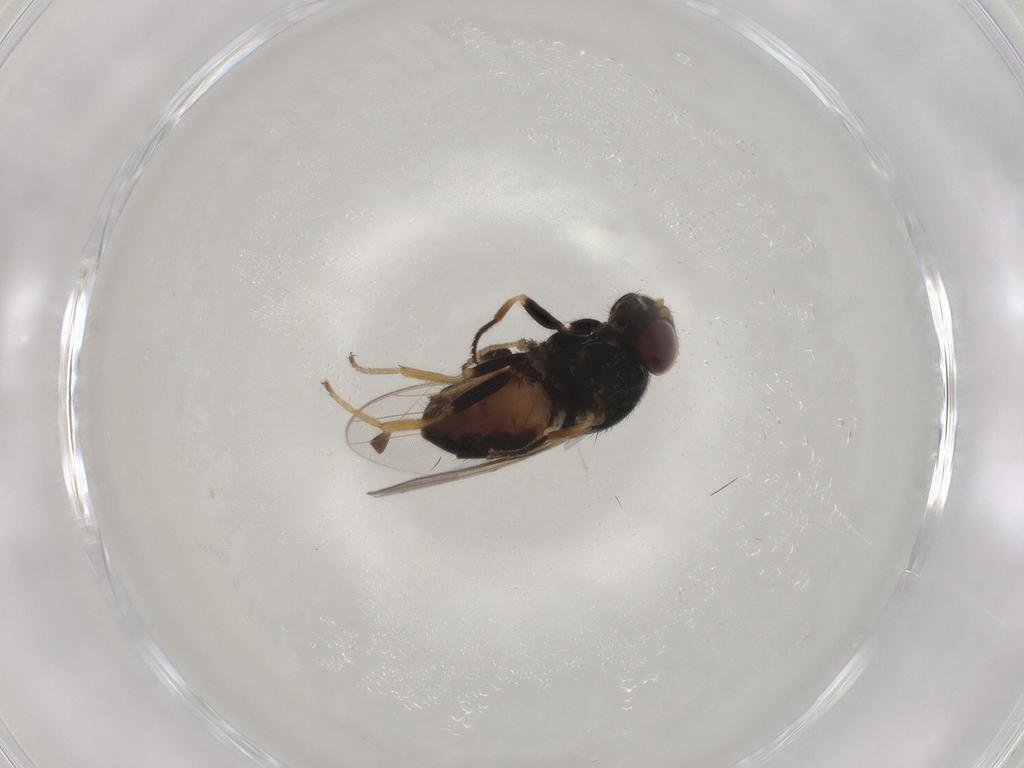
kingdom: Animalia
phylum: Arthropoda
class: Insecta
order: Diptera
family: Chloropidae
